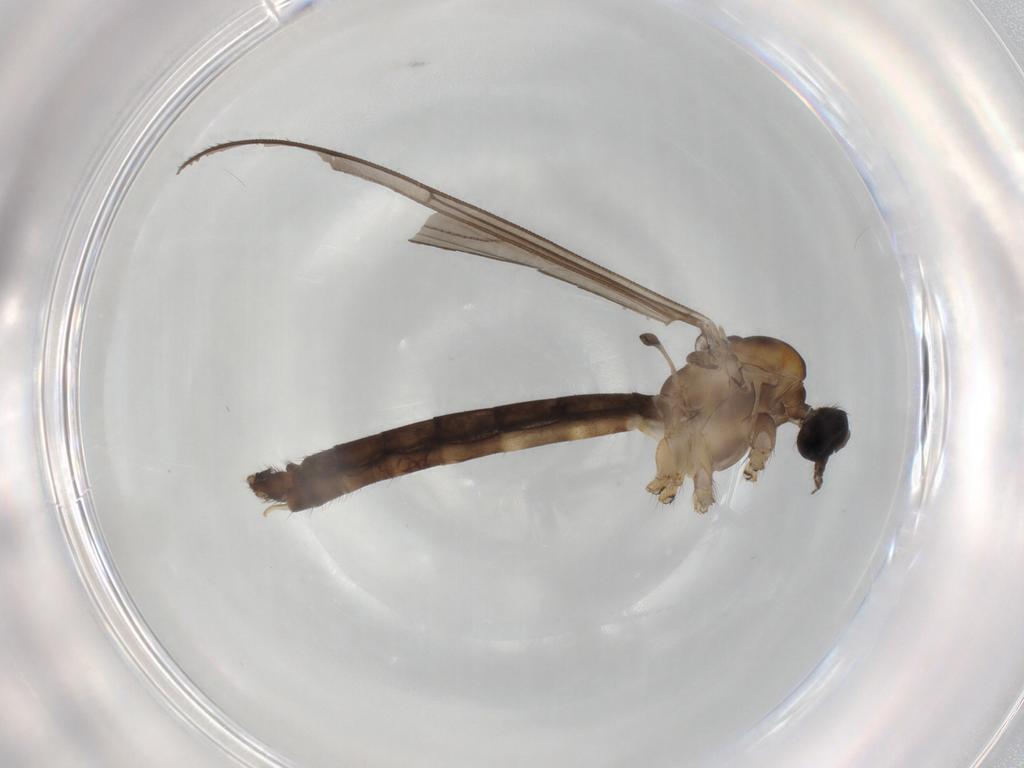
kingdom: Animalia
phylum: Arthropoda
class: Insecta
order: Diptera
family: Limoniidae
